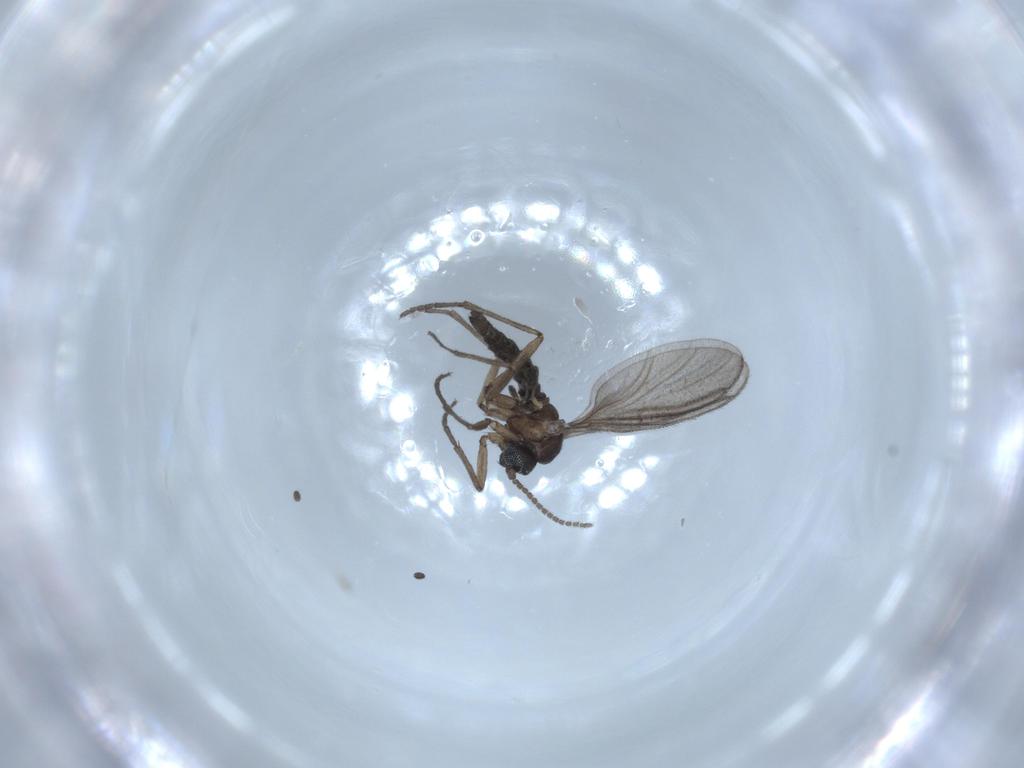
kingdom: Animalia
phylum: Arthropoda
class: Insecta
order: Diptera
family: Sciaridae
